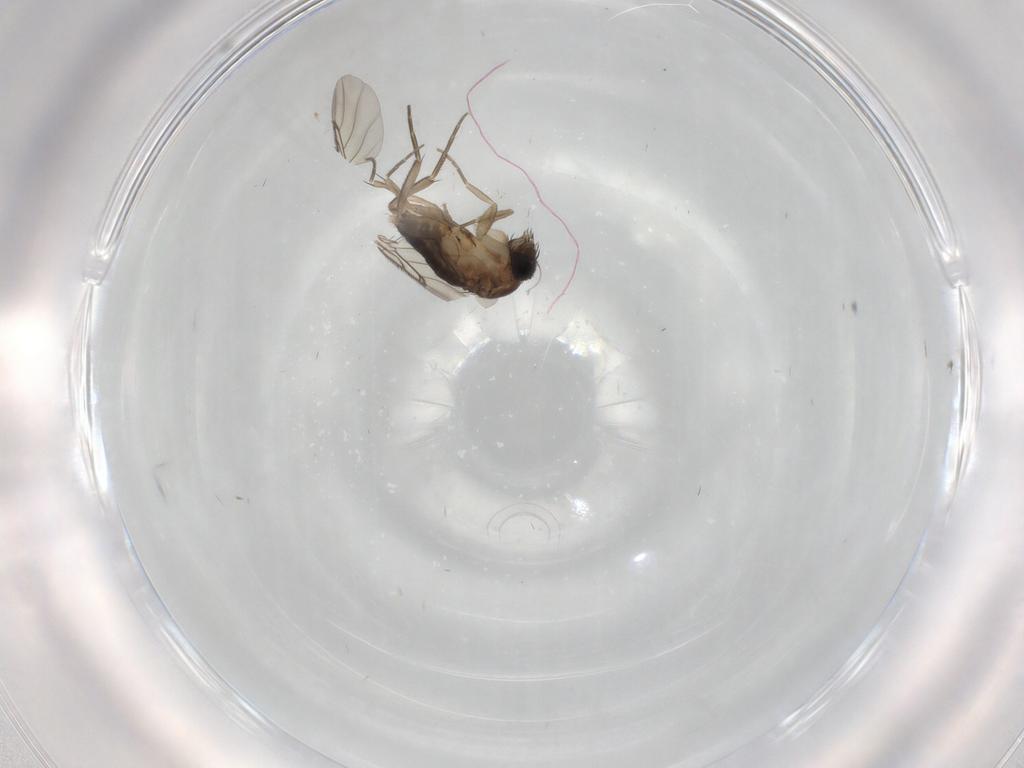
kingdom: Animalia
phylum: Arthropoda
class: Insecta
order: Diptera
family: Phoridae
